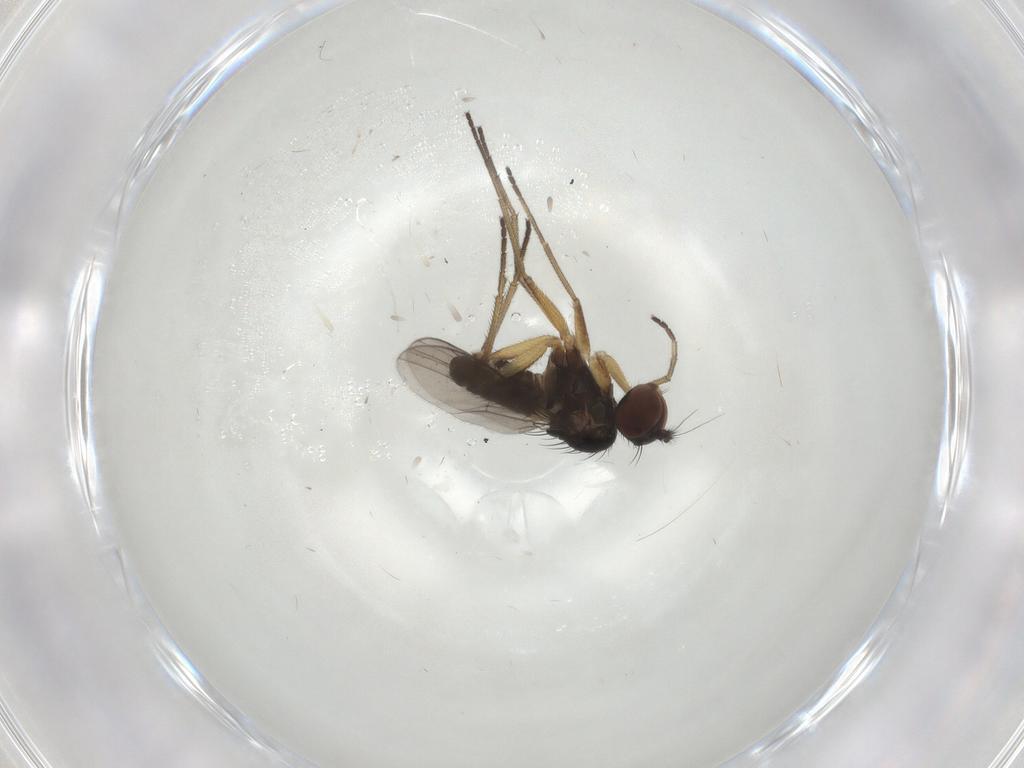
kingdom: Animalia
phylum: Arthropoda
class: Insecta
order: Diptera
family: Dolichopodidae
